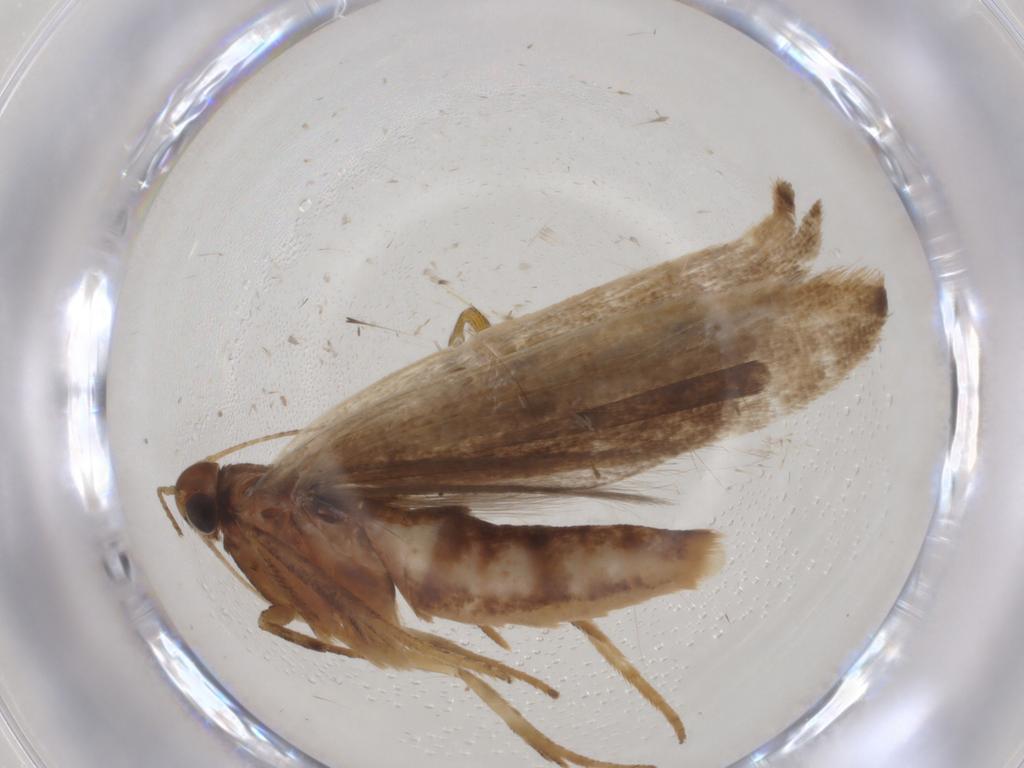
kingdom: Animalia
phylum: Arthropoda
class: Insecta
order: Lepidoptera
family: Gelechiidae
